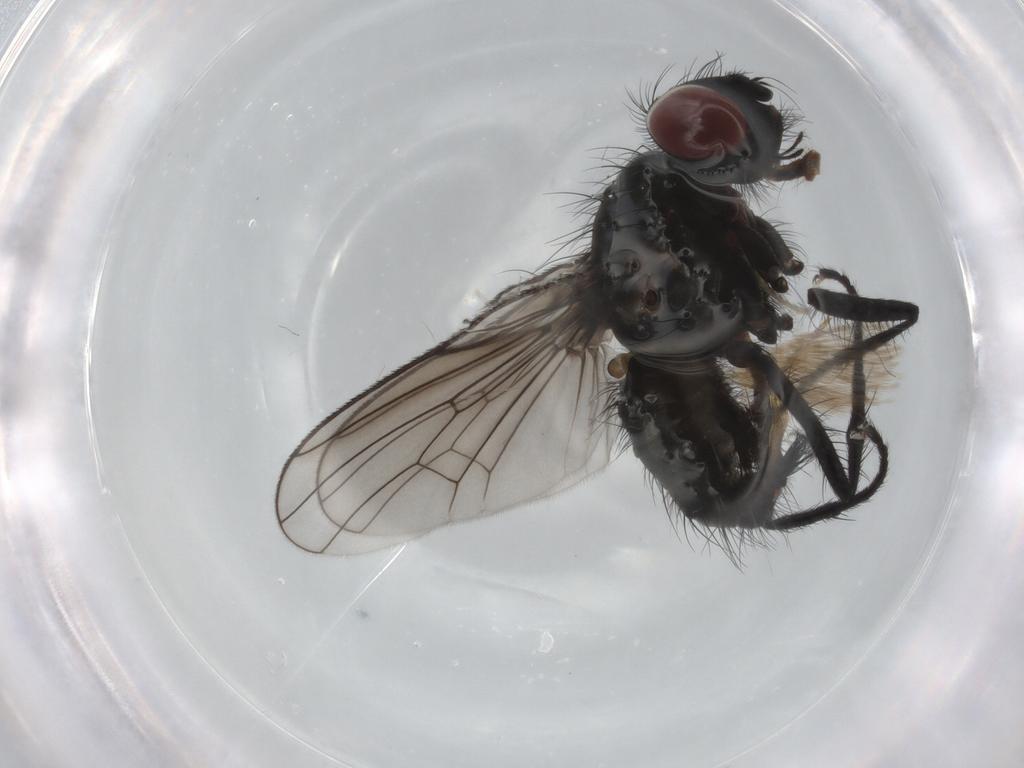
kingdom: Animalia
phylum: Arthropoda
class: Insecta
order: Diptera
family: Anthomyiidae
